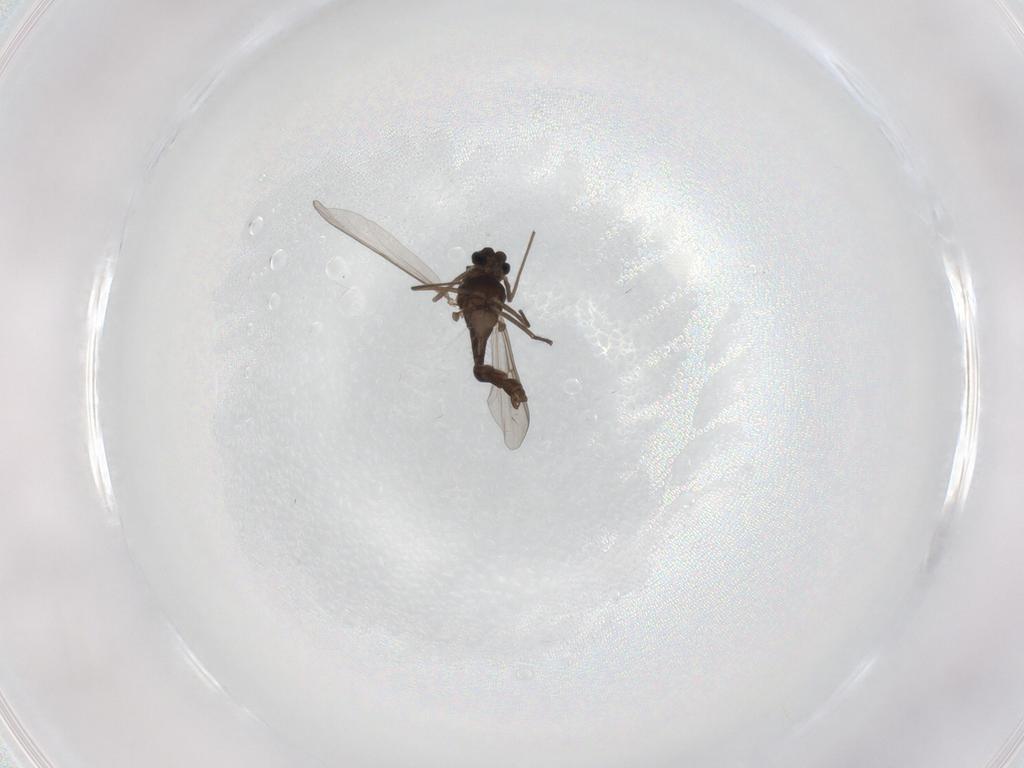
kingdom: Animalia
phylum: Arthropoda
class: Insecta
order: Diptera
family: Chironomidae
